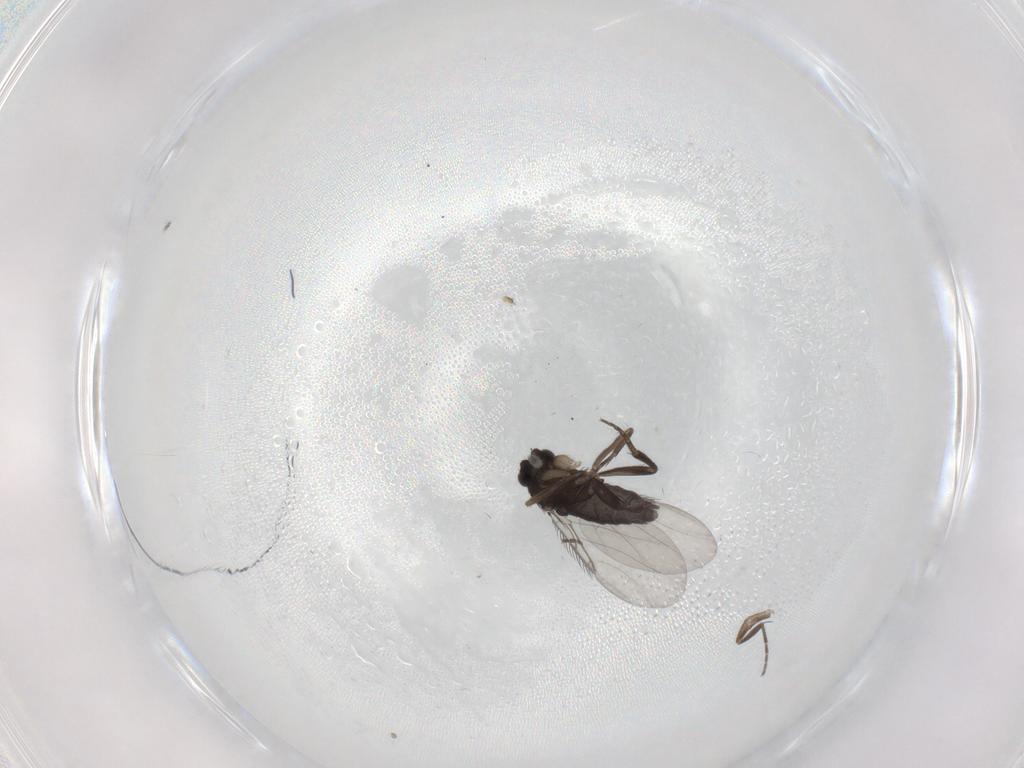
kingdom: Animalia
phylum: Arthropoda
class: Insecta
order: Diptera
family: Phoridae
